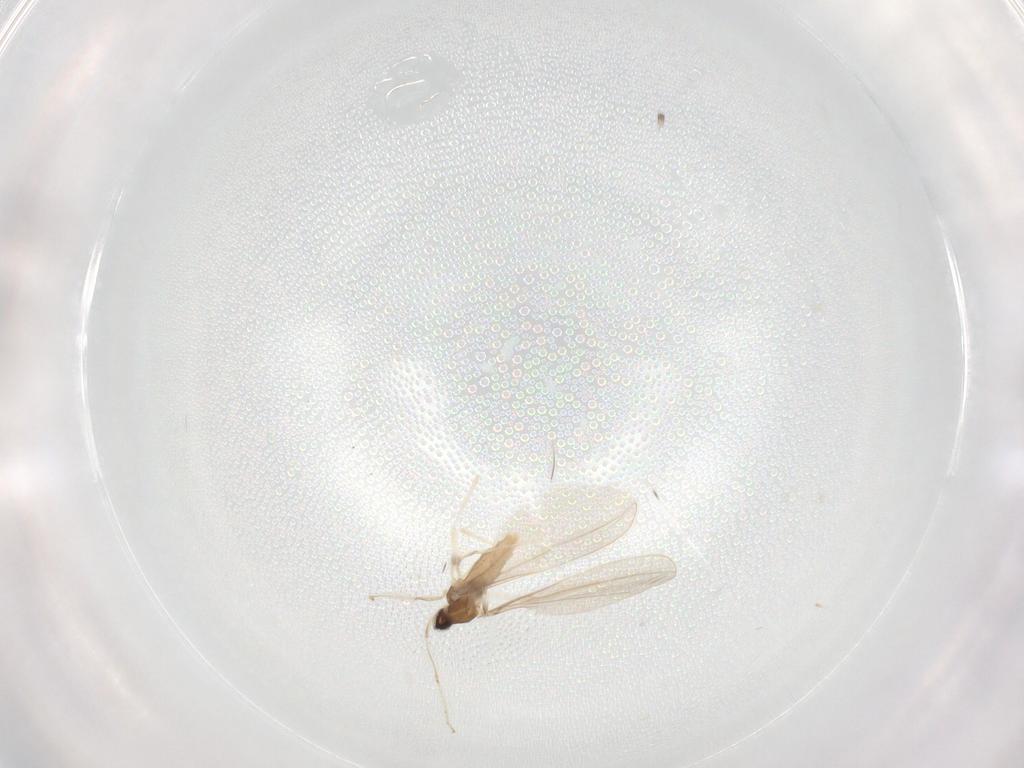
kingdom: Animalia
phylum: Arthropoda
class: Insecta
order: Diptera
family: Cecidomyiidae
